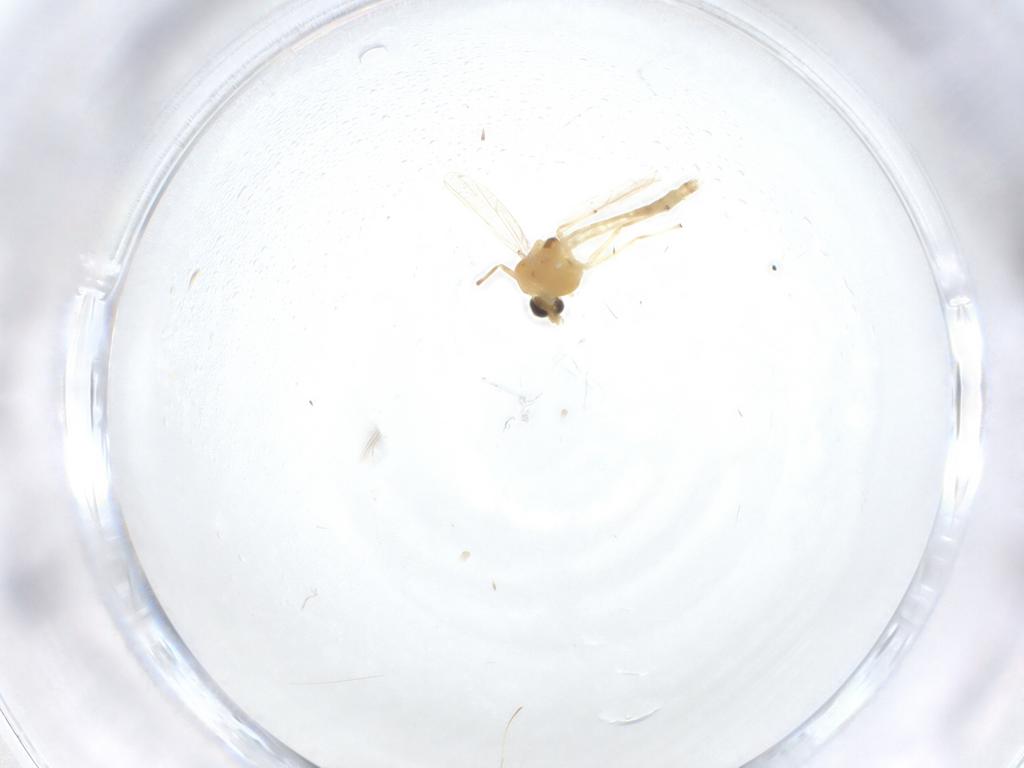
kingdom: Animalia
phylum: Arthropoda
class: Insecta
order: Diptera
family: Chironomidae
